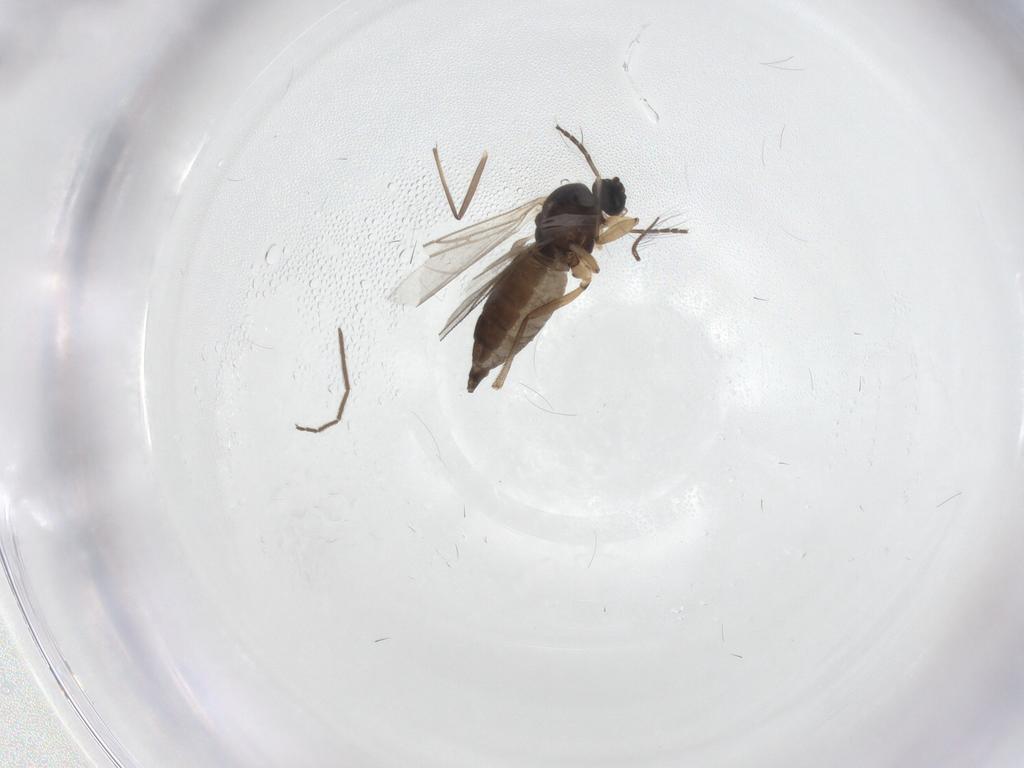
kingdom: Animalia
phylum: Arthropoda
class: Insecta
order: Diptera
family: Sciaridae
